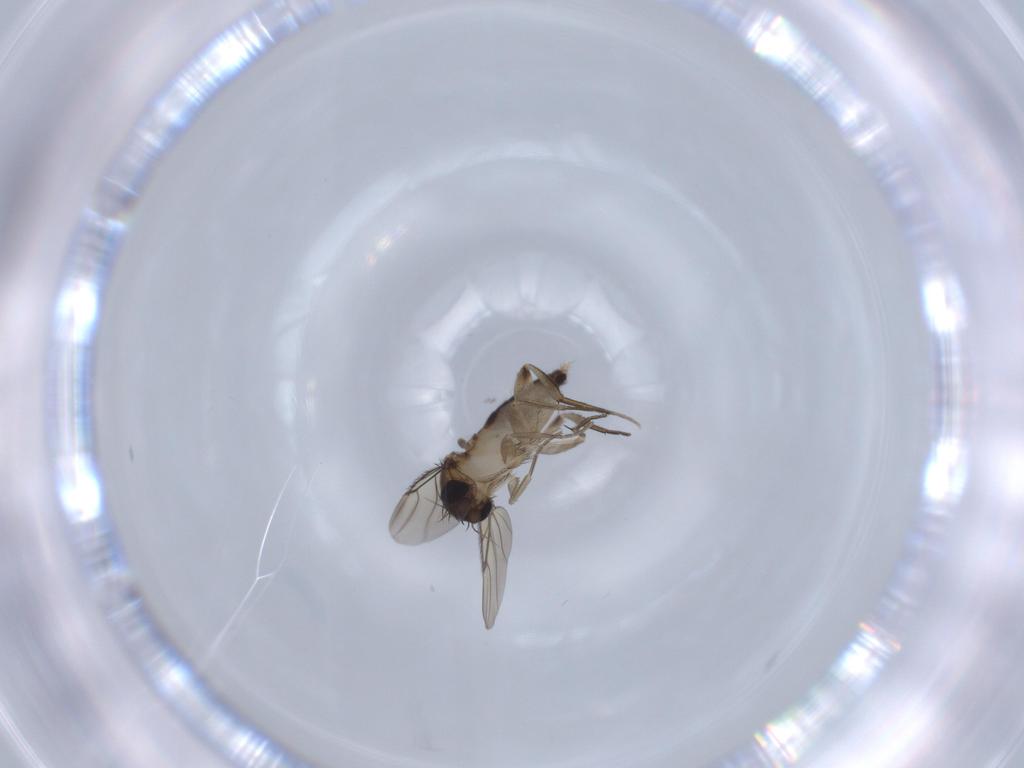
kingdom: Animalia
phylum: Arthropoda
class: Insecta
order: Diptera
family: Phoridae
